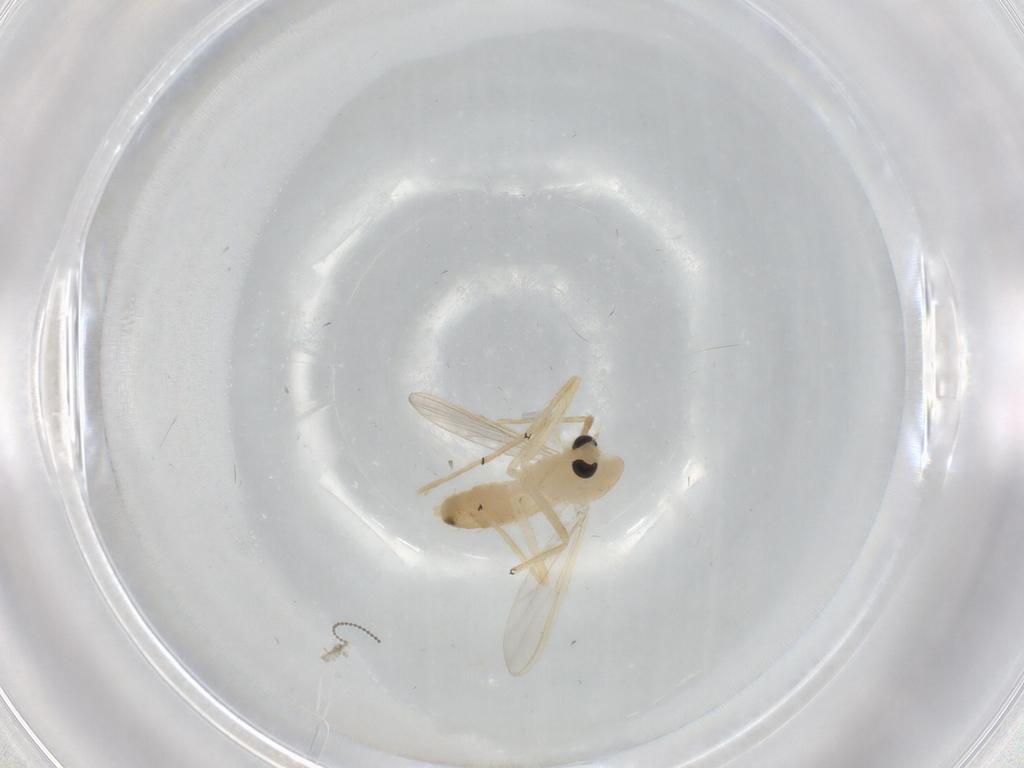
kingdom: Animalia
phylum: Arthropoda
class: Insecta
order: Diptera
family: Chironomidae
